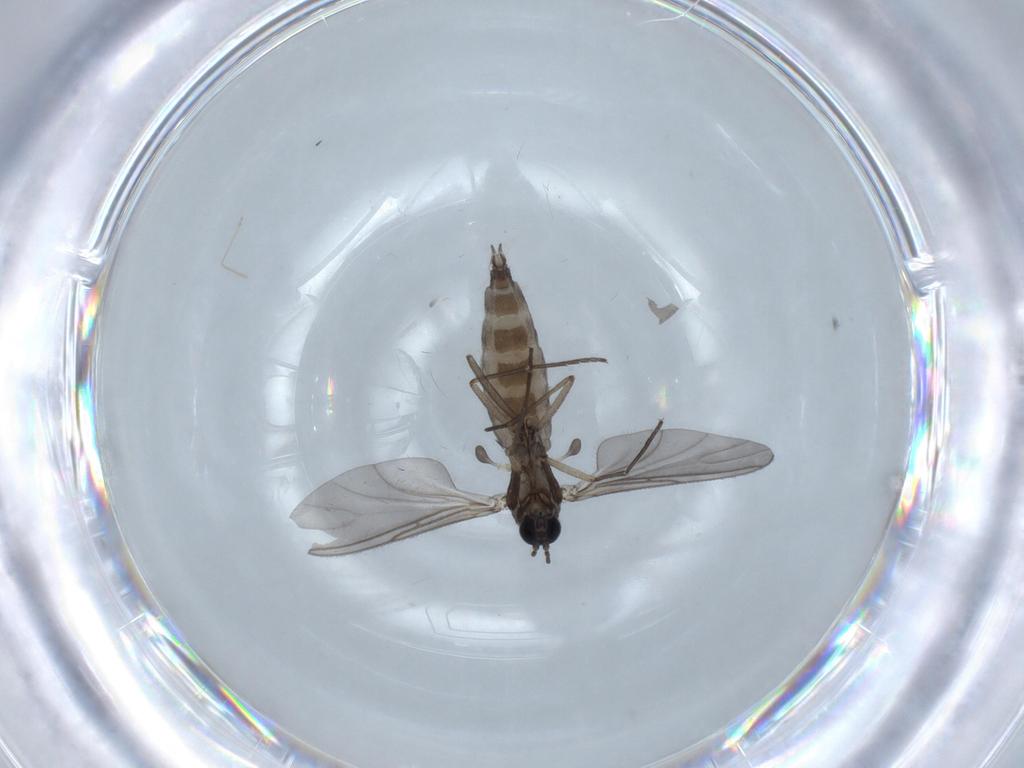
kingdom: Animalia
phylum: Arthropoda
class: Insecta
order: Diptera
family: Sciaridae
